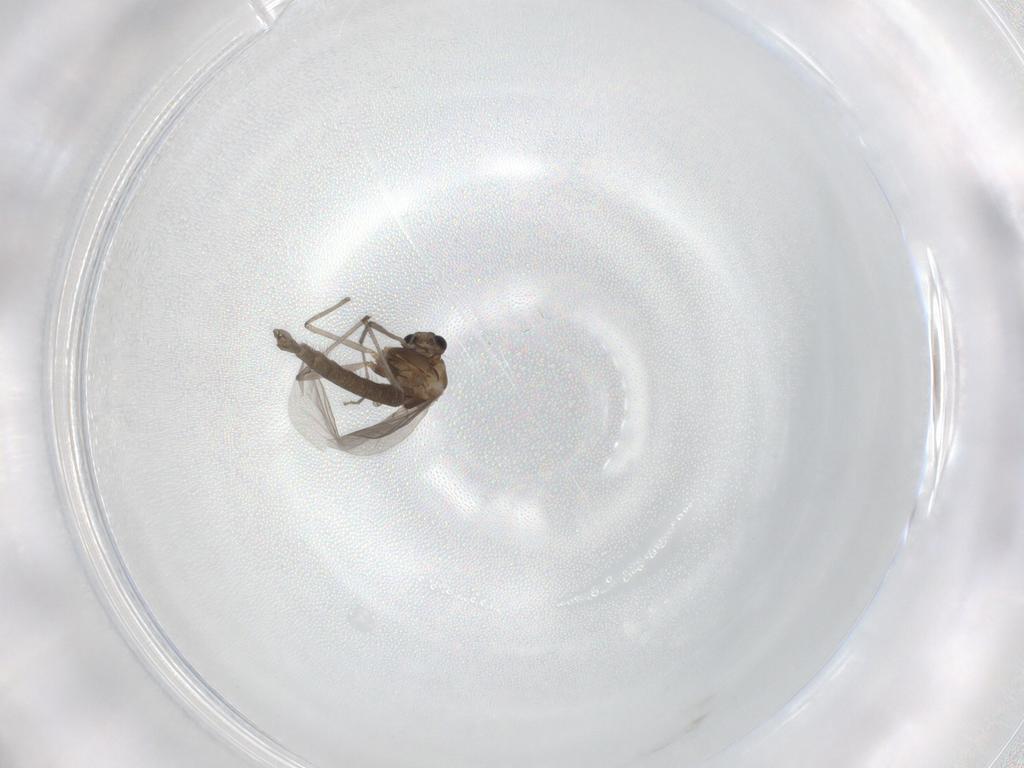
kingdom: Animalia
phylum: Arthropoda
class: Insecta
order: Diptera
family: Chironomidae
